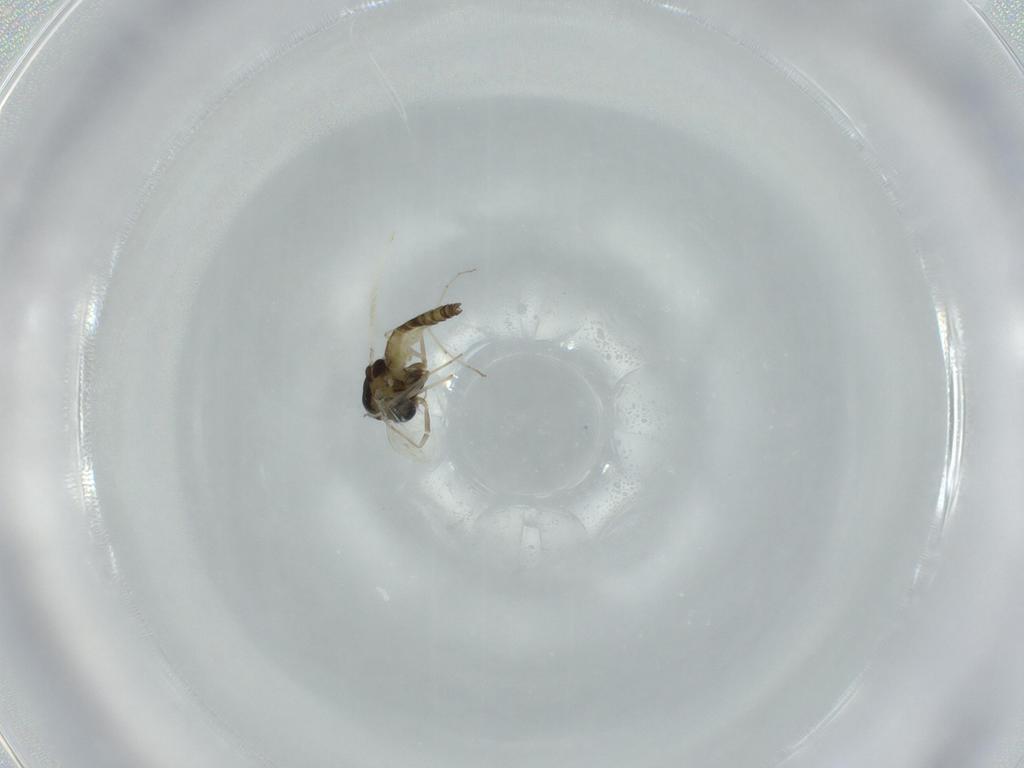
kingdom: Animalia
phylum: Arthropoda
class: Insecta
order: Diptera
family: Chironomidae
